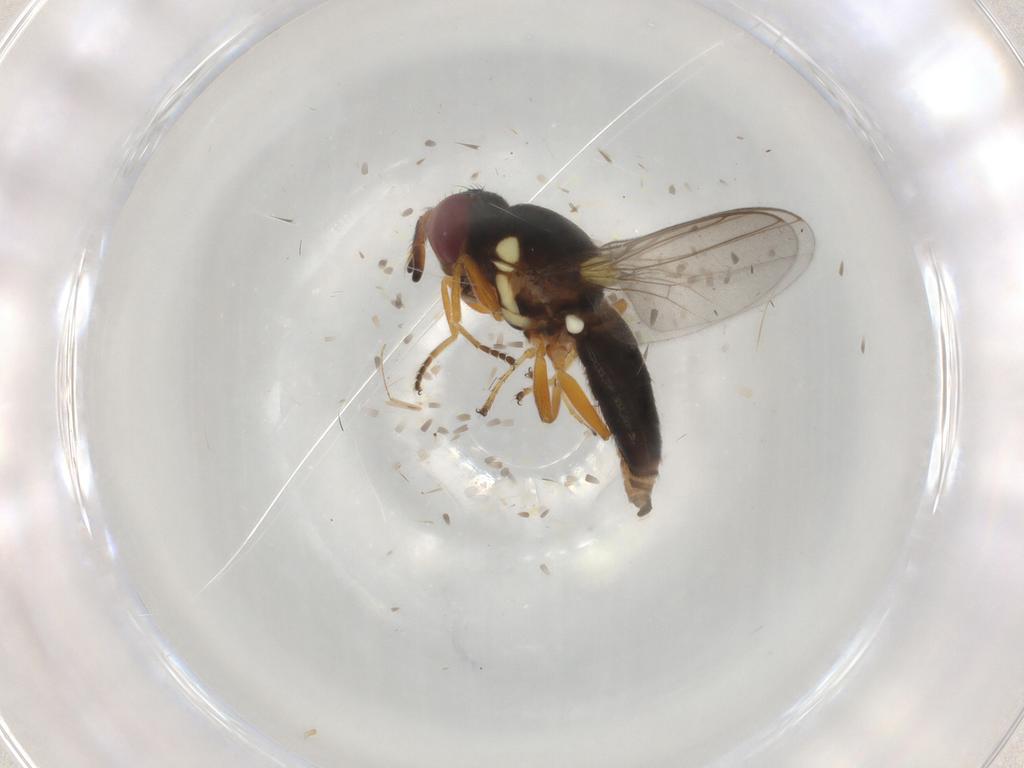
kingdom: Animalia
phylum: Arthropoda
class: Insecta
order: Diptera
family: Chloropidae
